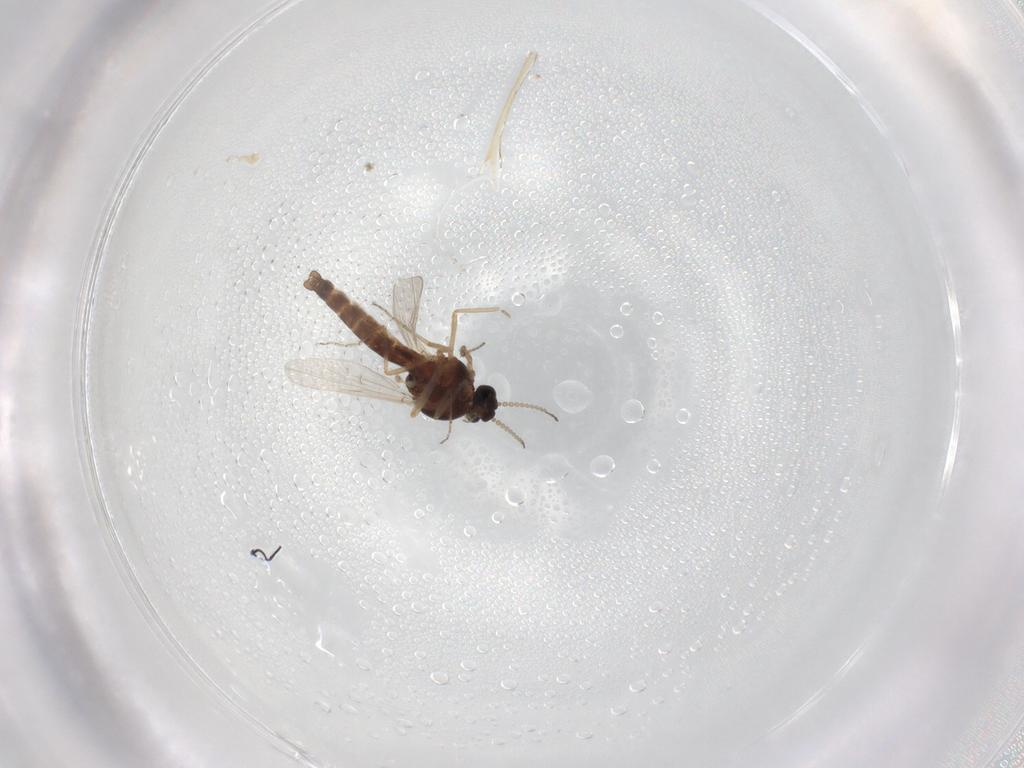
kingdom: Animalia
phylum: Arthropoda
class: Insecta
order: Diptera
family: Ceratopogonidae
